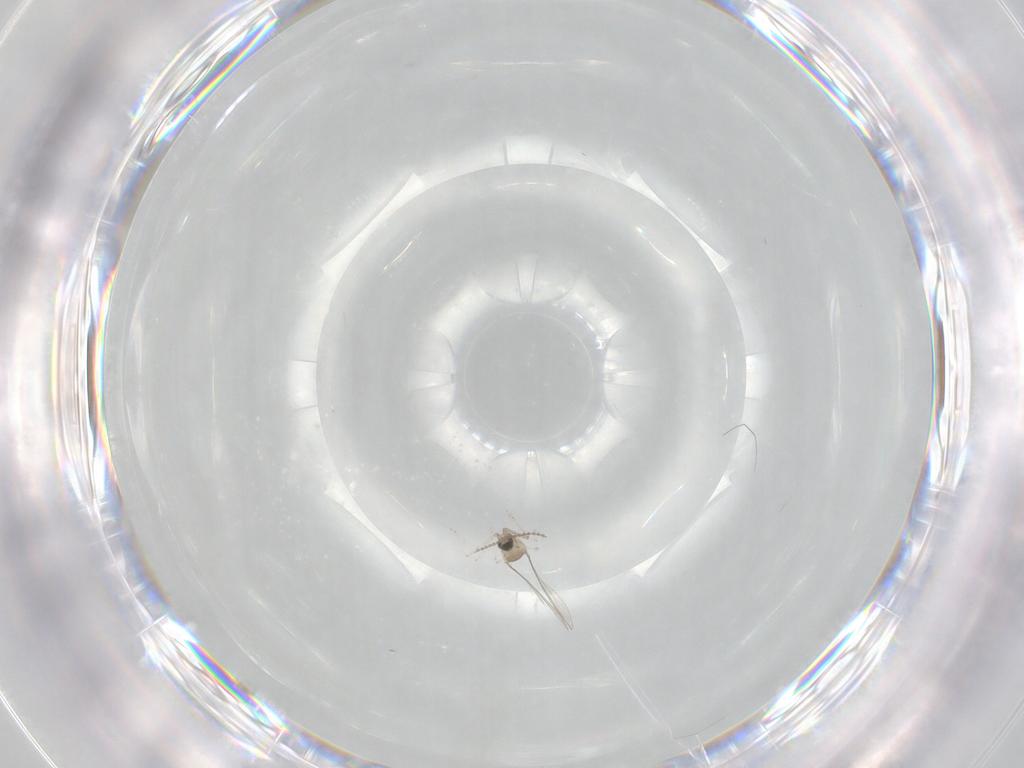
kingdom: Animalia
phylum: Arthropoda
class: Insecta
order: Diptera
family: Cecidomyiidae
